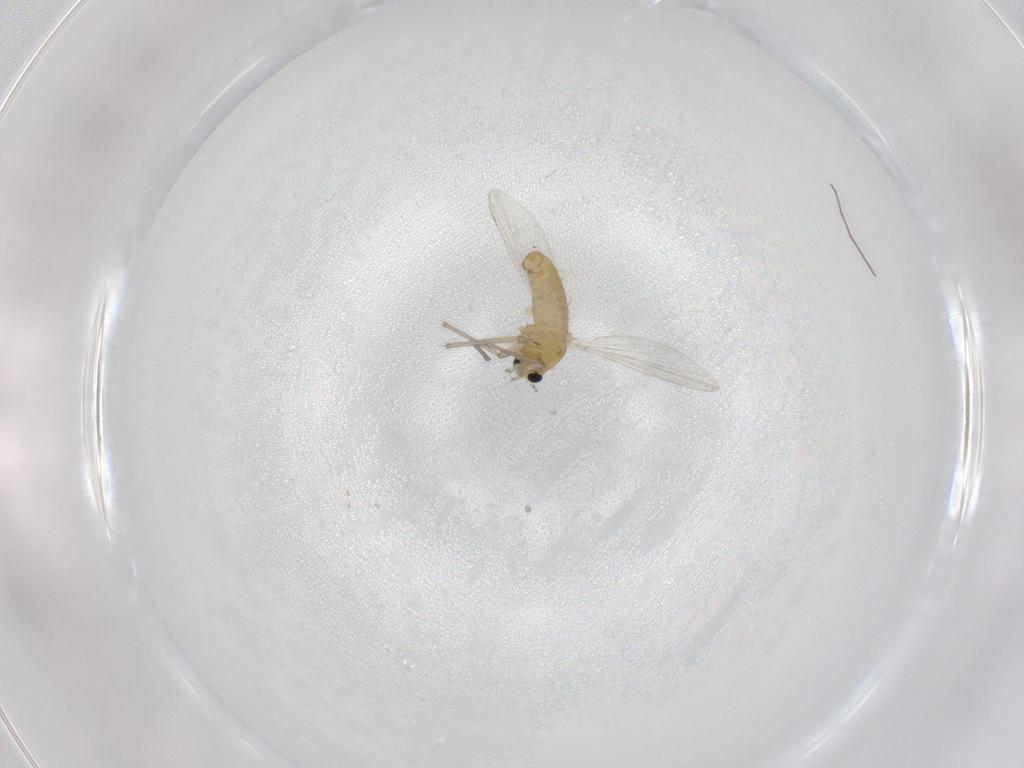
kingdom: Animalia
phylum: Arthropoda
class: Insecta
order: Diptera
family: Chironomidae
